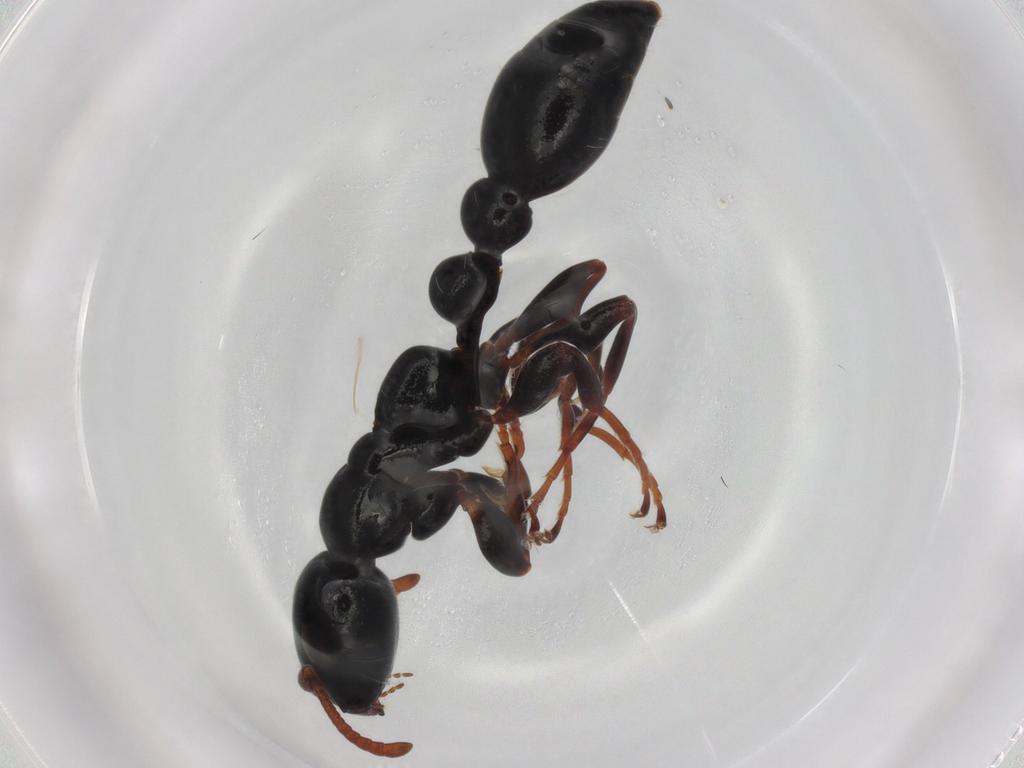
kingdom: Animalia
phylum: Arthropoda
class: Insecta
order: Hymenoptera
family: Formicidae
